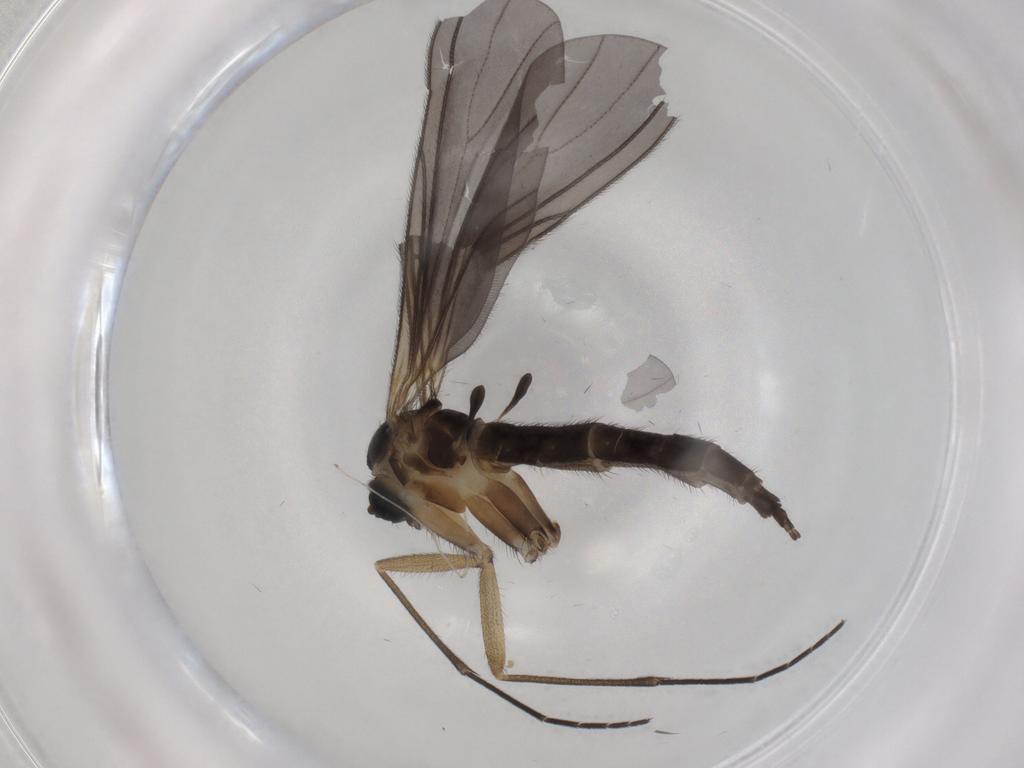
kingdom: Animalia
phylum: Arthropoda
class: Insecta
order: Diptera
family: Sciaridae
